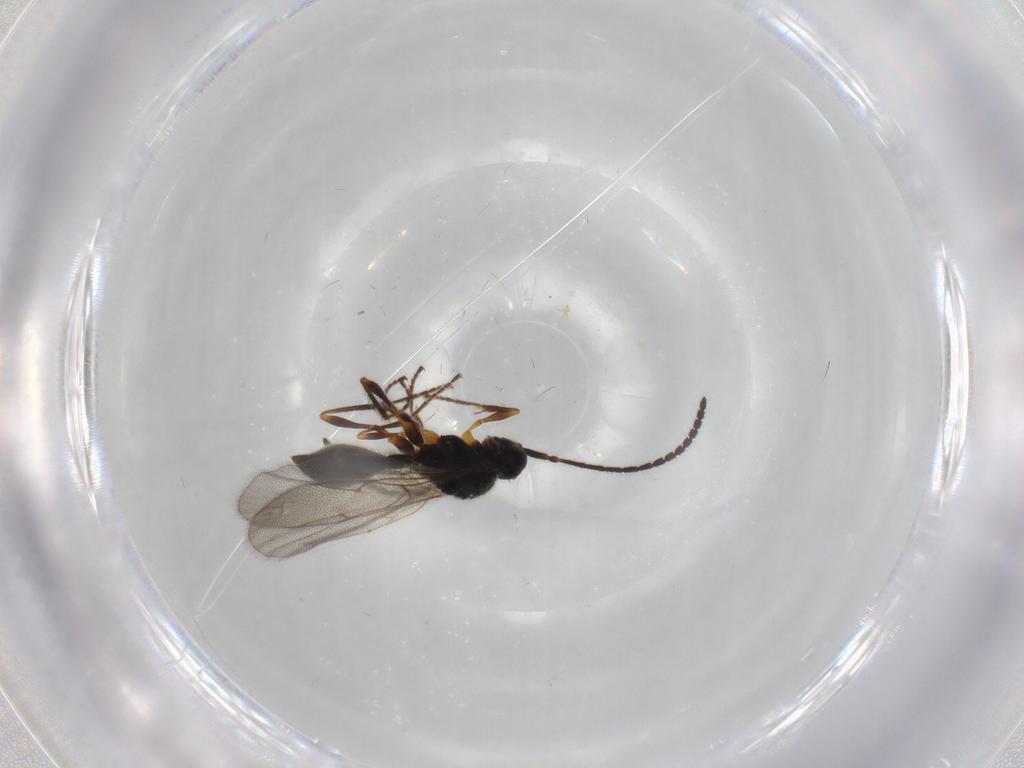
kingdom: Animalia
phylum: Arthropoda
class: Insecta
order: Hymenoptera
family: Diapriidae
